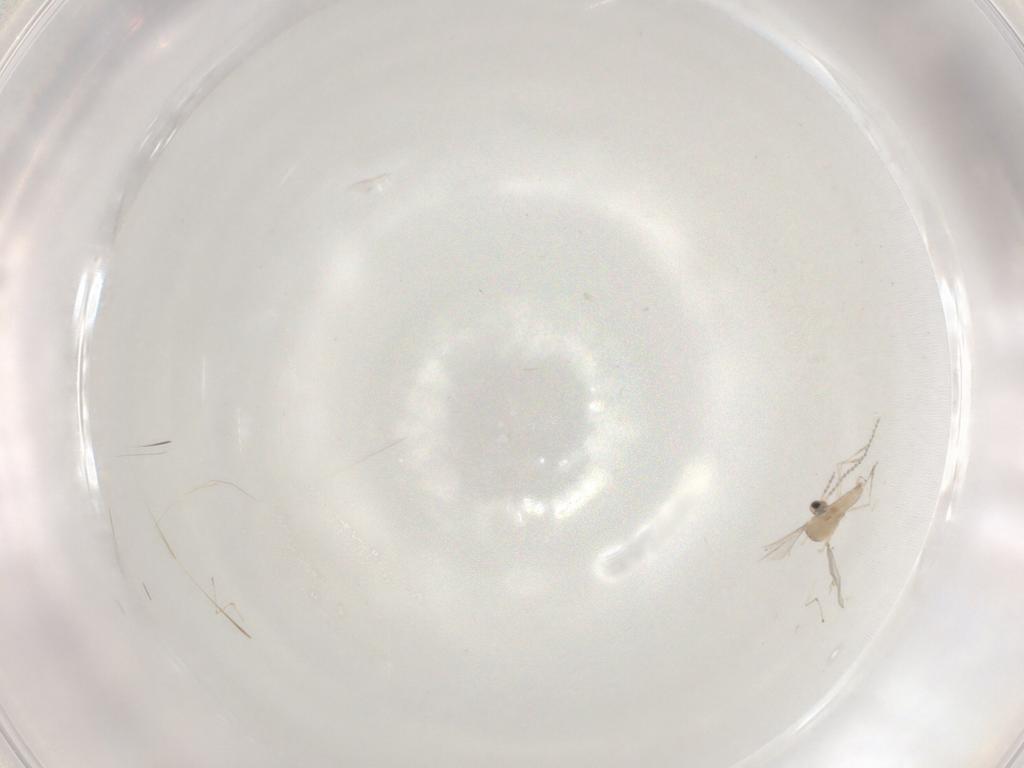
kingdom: Animalia
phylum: Arthropoda
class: Insecta
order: Diptera
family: Cecidomyiidae
